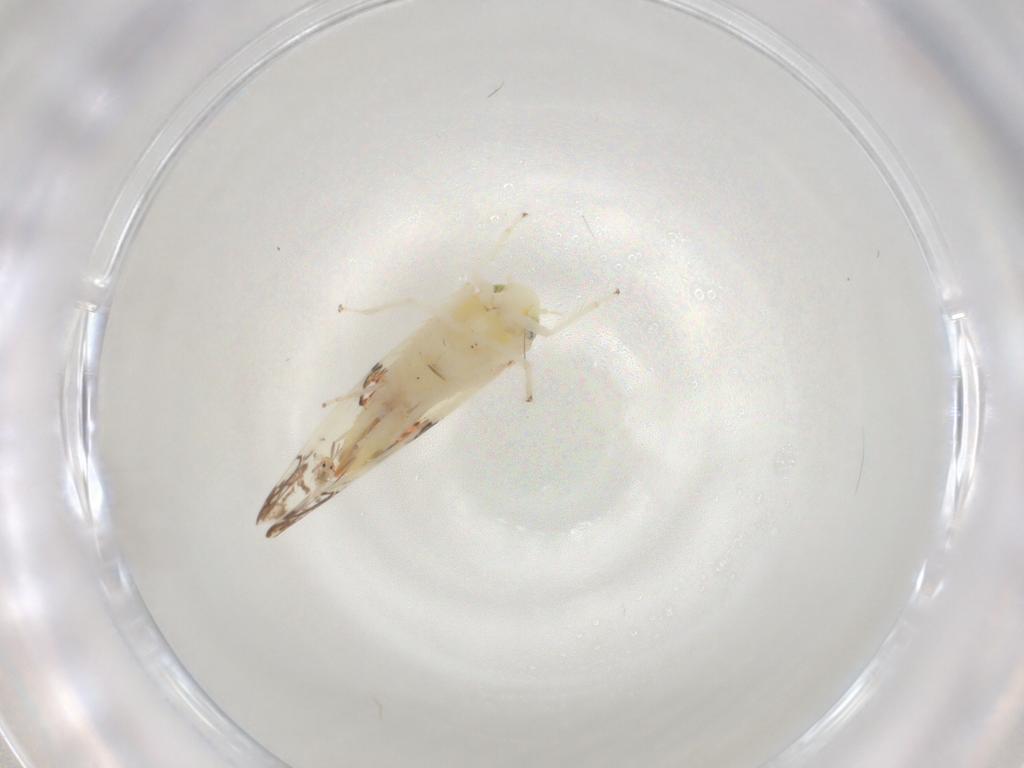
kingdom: Animalia
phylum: Arthropoda
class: Insecta
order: Hemiptera
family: Cicadellidae
